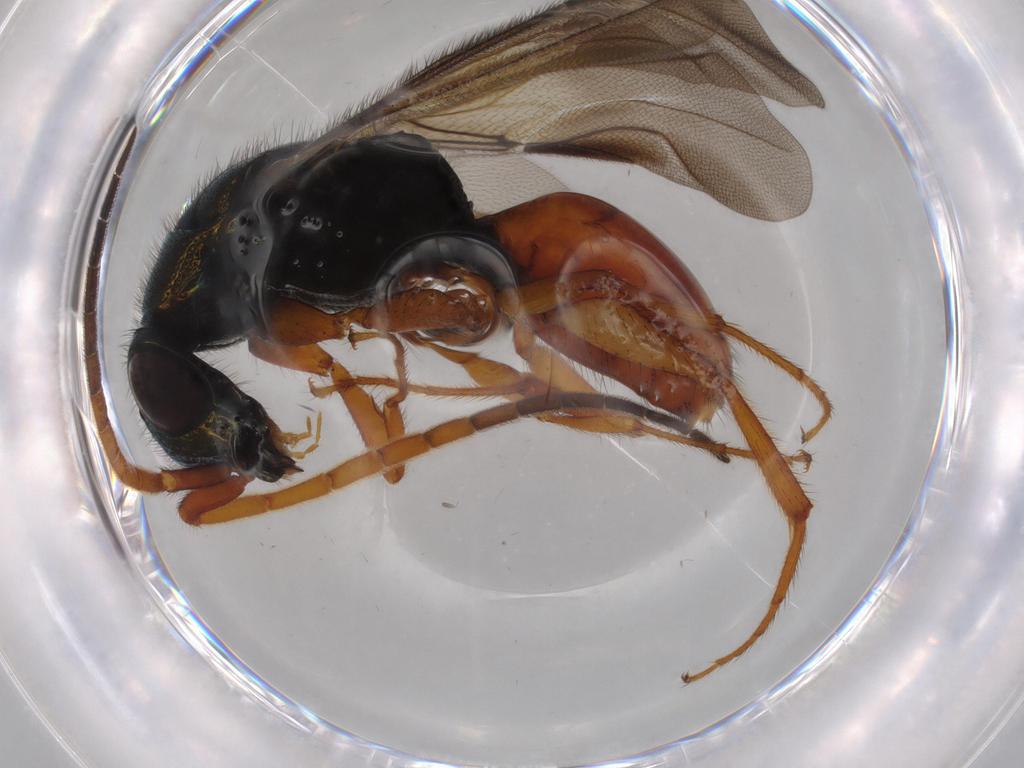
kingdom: Animalia
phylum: Arthropoda
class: Insecta
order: Hymenoptera
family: Chrysididae
